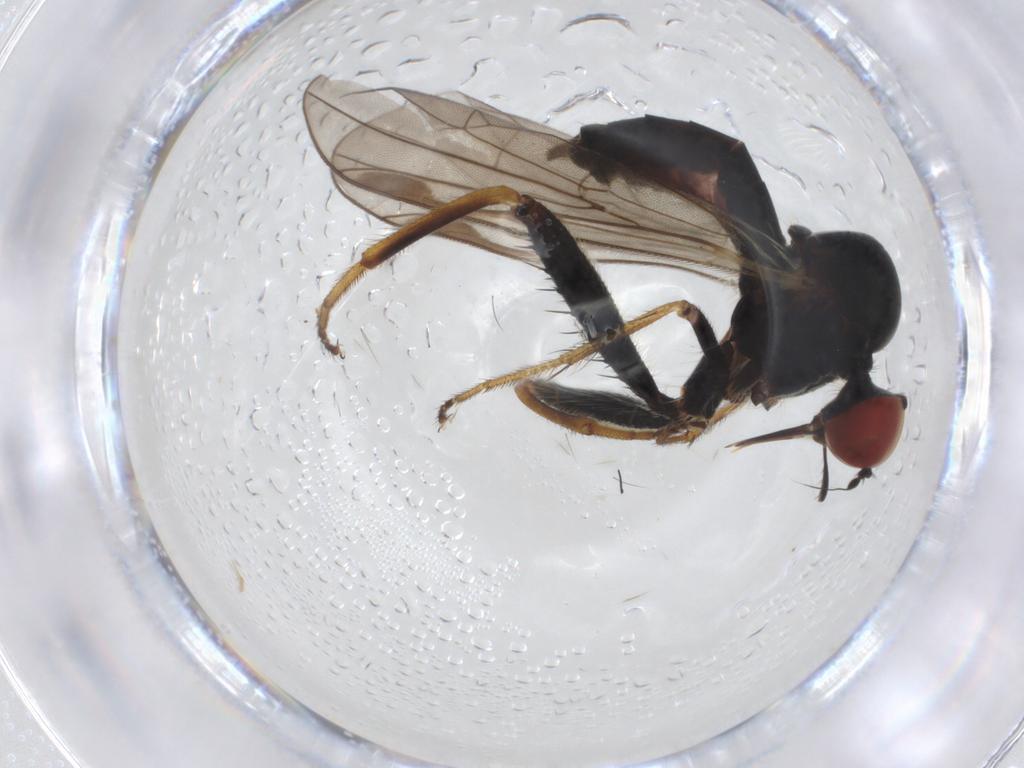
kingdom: Animalia
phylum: Arthropoda
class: Insecta
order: Diptera
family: Hybotidae
